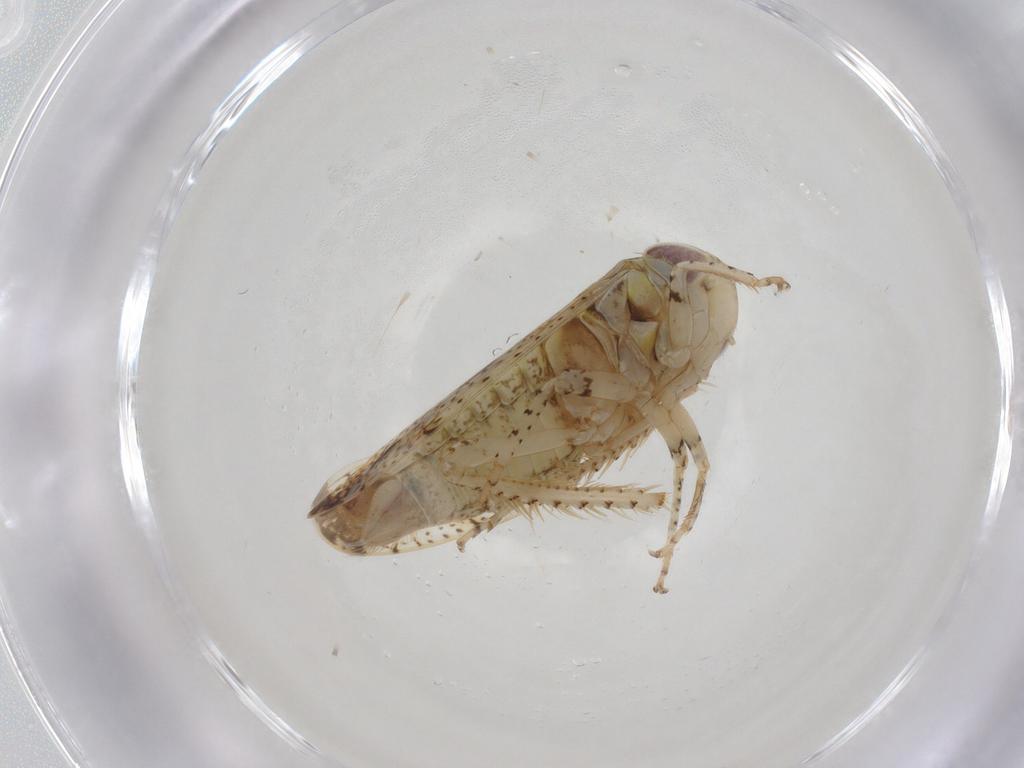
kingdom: Animalia
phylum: Arthropoda
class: Insecta
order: Hemiptera
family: Cicadellidae
